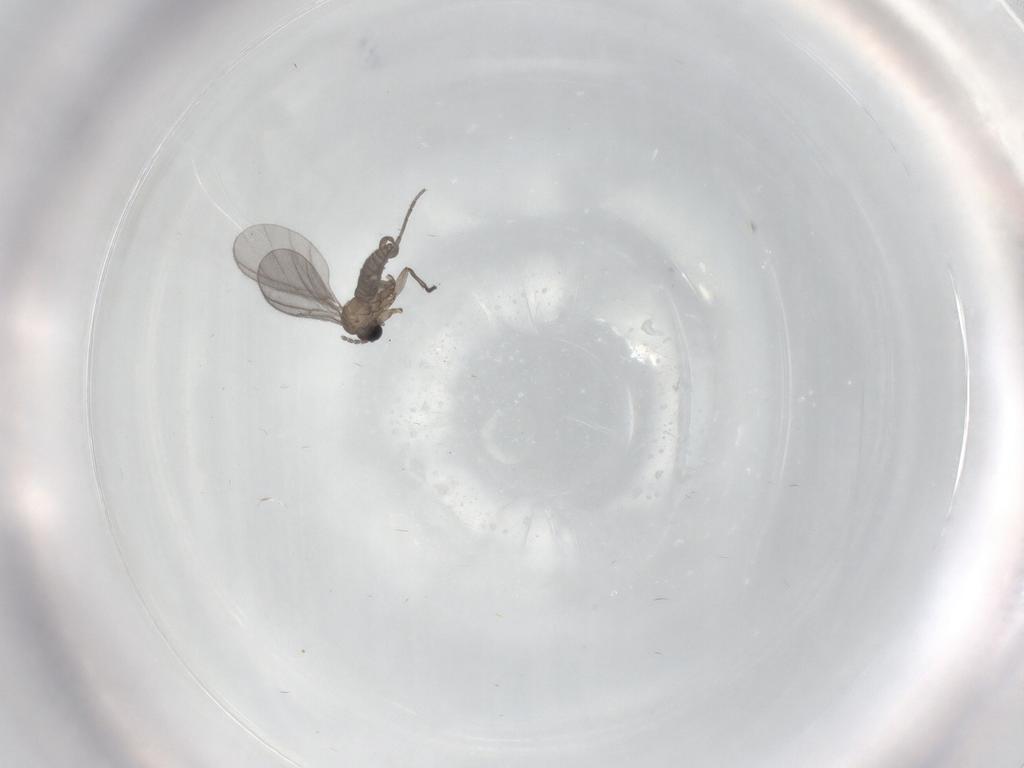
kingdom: Animalia
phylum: Arthropoda
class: Insecta
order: Diptera
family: Sciaridae
